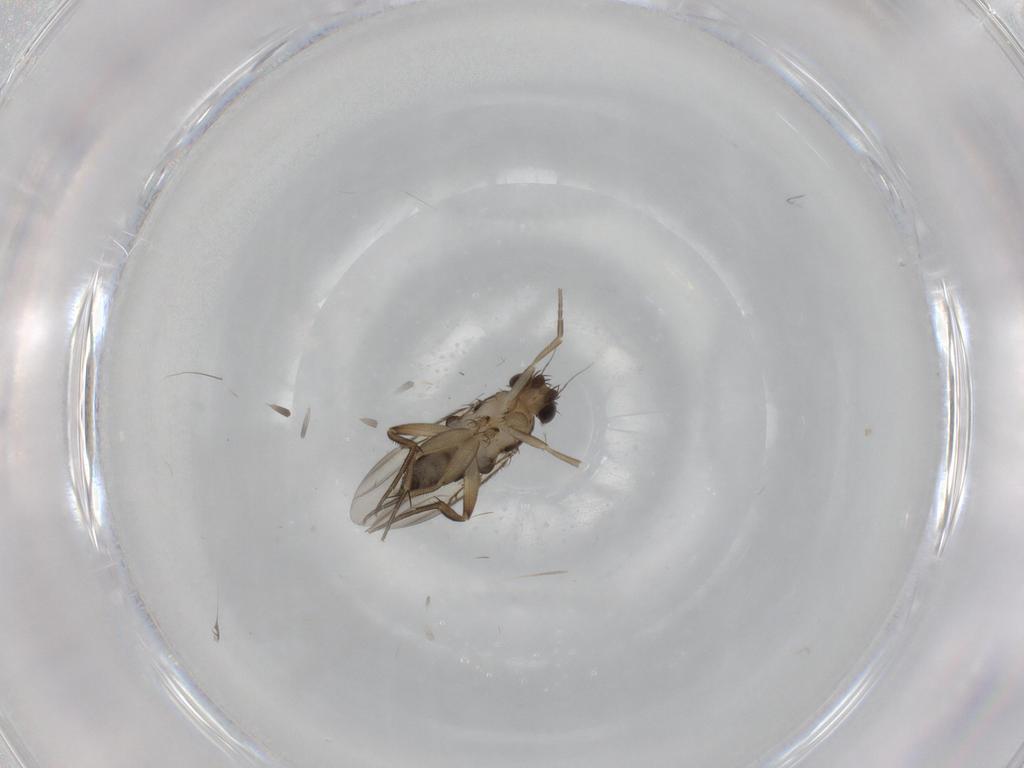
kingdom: Animalia
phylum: Arthropoda
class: Insecta
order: Diptera
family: Phoridae
